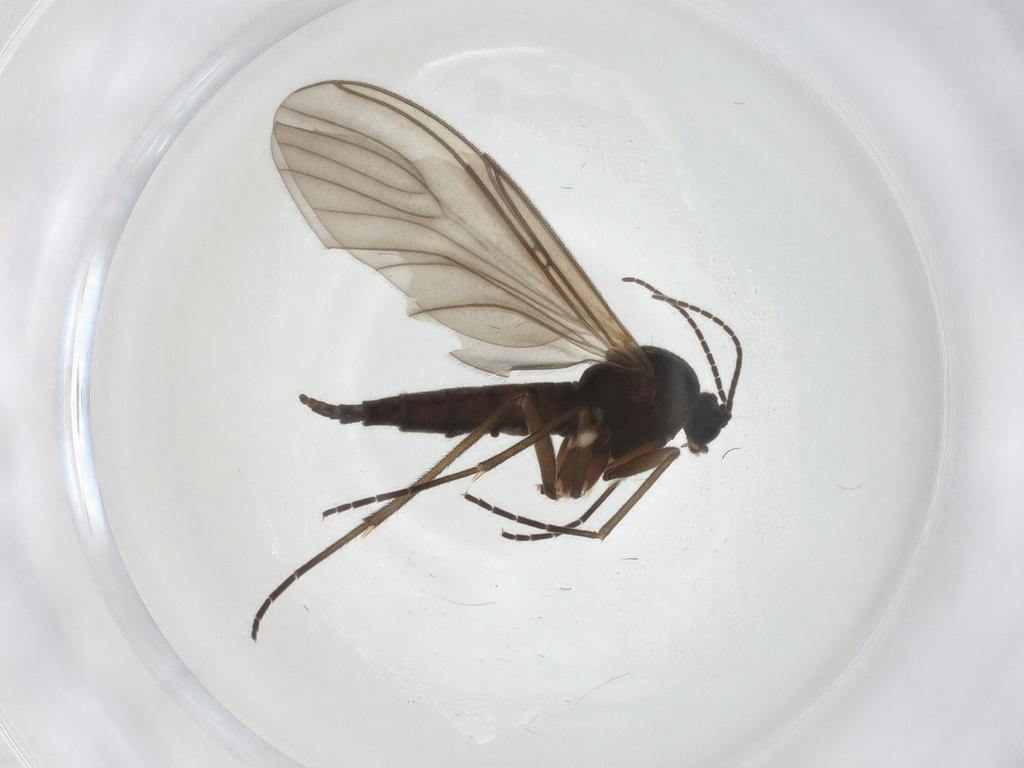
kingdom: Animalia
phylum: Arthropoda
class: Insecta
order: Diptera
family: Sciaridae
